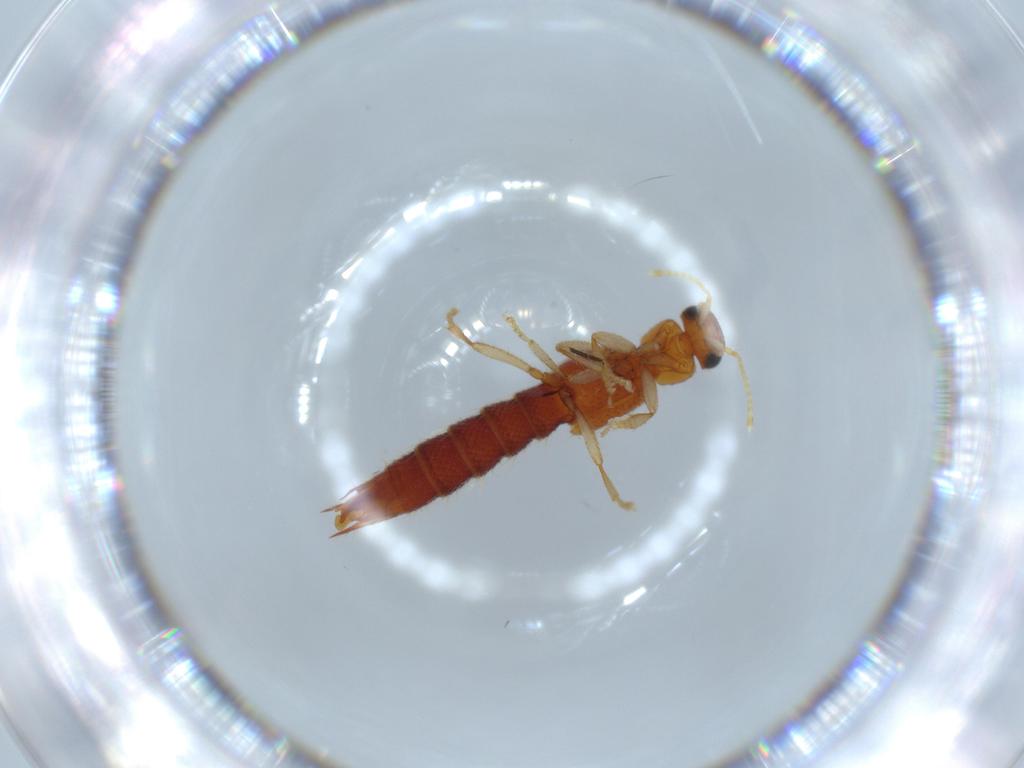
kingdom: Animalia
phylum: Arthropoda
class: Insecta
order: Coleoptera
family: Staphylinidae
